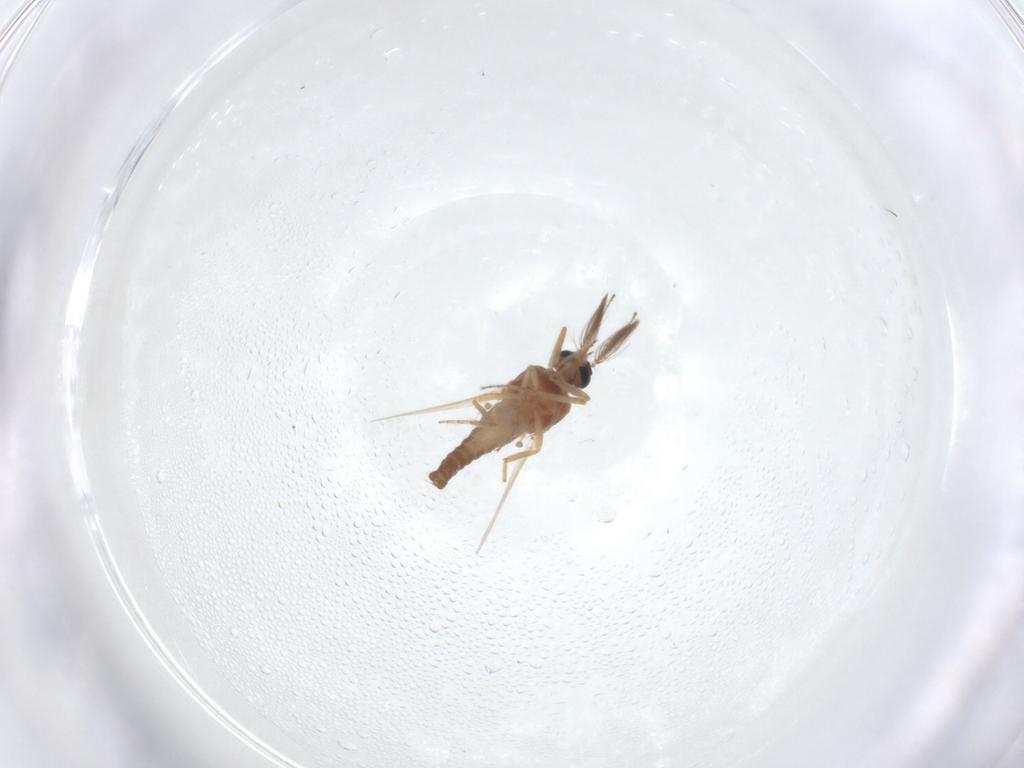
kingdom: Animalia
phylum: Arthropoda
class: Insecta
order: Diptera
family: Ceratopogonidae
